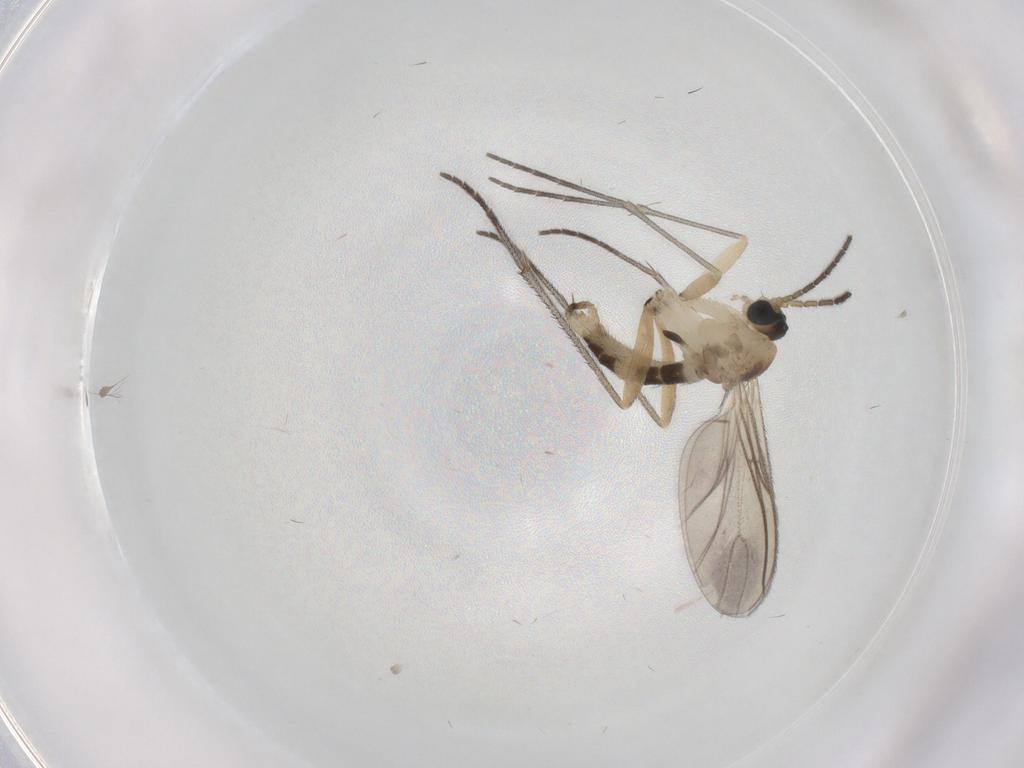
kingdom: Animalia
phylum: Arthropoda
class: Insecta
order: Diptera
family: Sciaridae
